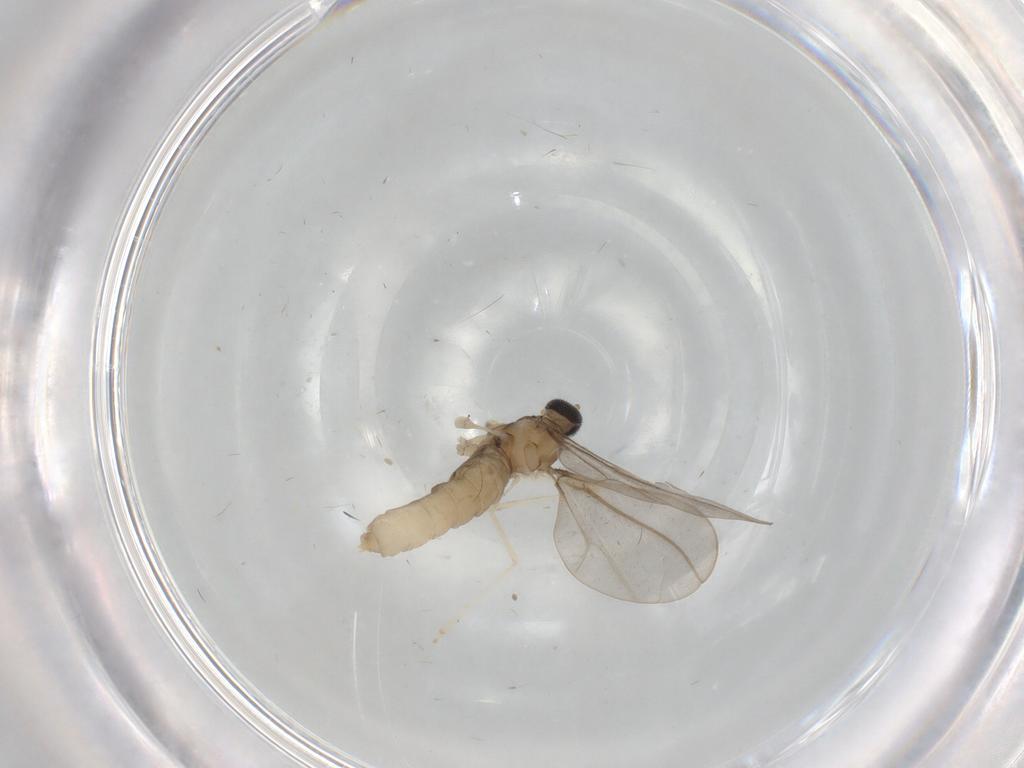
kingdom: Animalia
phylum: Arthropoda
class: Insecta
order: Diptera
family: Cecidomyiidae
